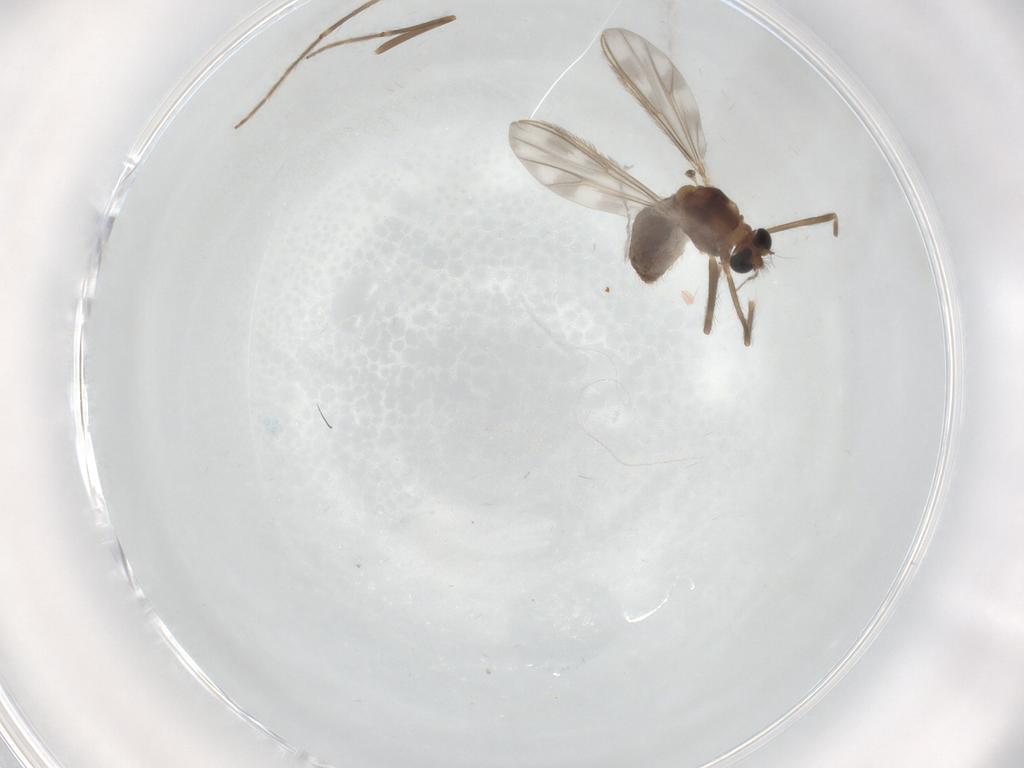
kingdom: Animalia
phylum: Arthropoda
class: Insecta
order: Diptera
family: Chironomidae
